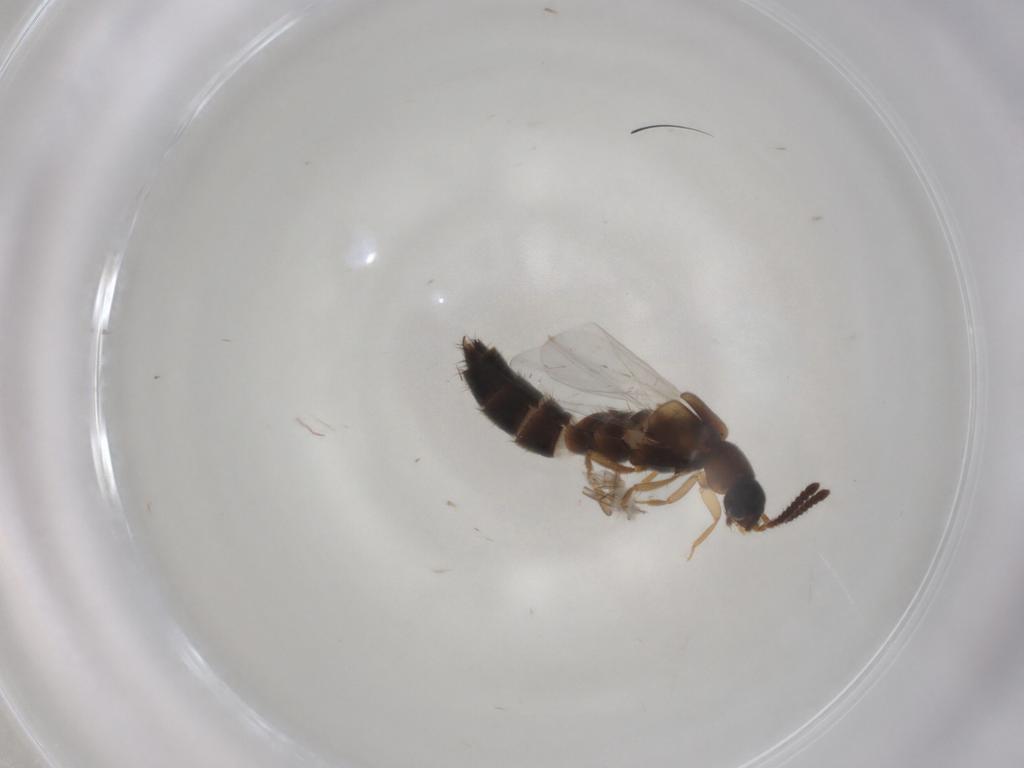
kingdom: Animalia
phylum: Arthropoda
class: Insecta
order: Coleoptera
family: Staphylinidae
